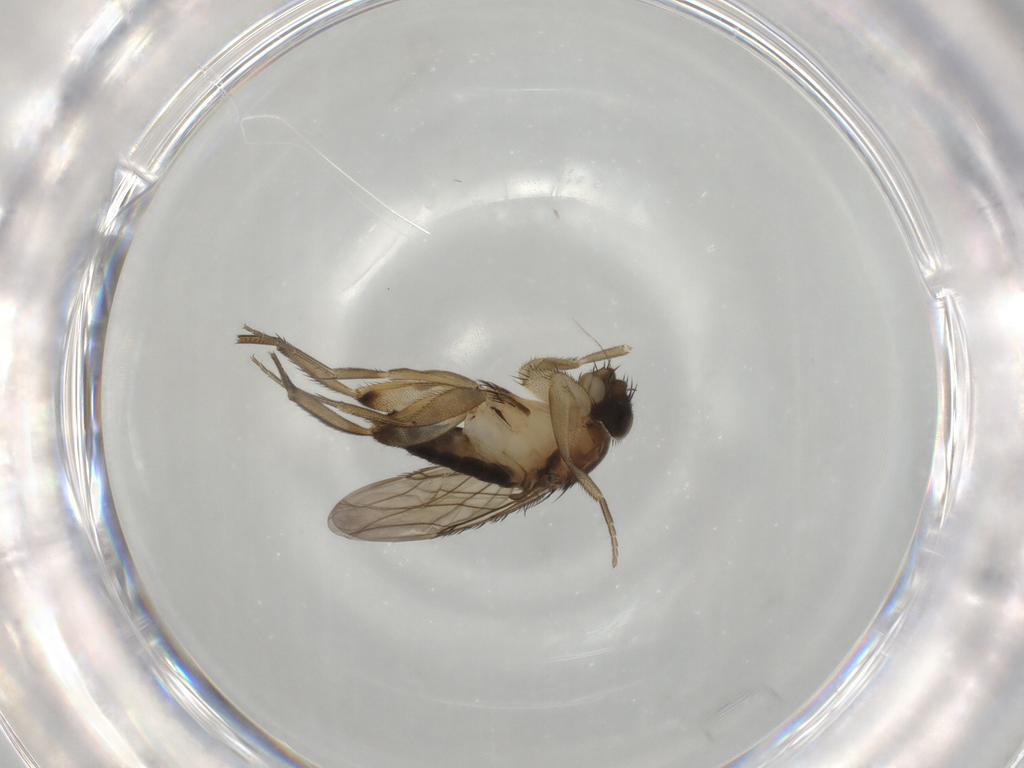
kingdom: Animalia
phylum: Arthropoda
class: Insecta
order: Diptera
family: Phoridae
